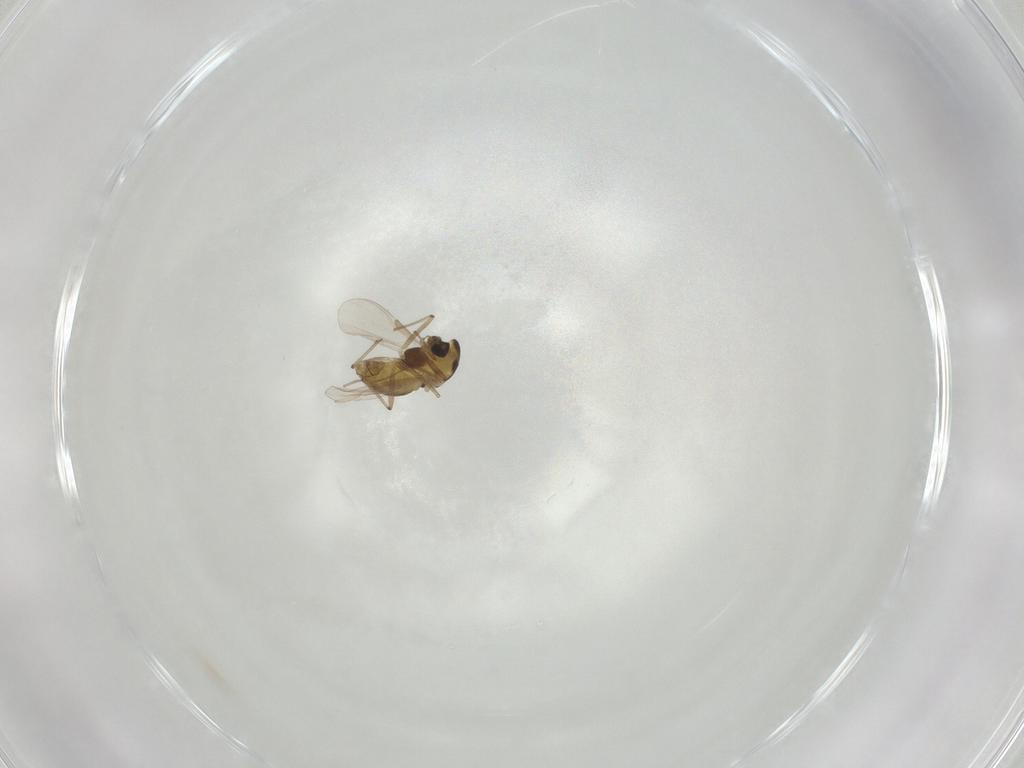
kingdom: Animalia
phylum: Arthropoda
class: Insecta
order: Diptera
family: Chironomidae
